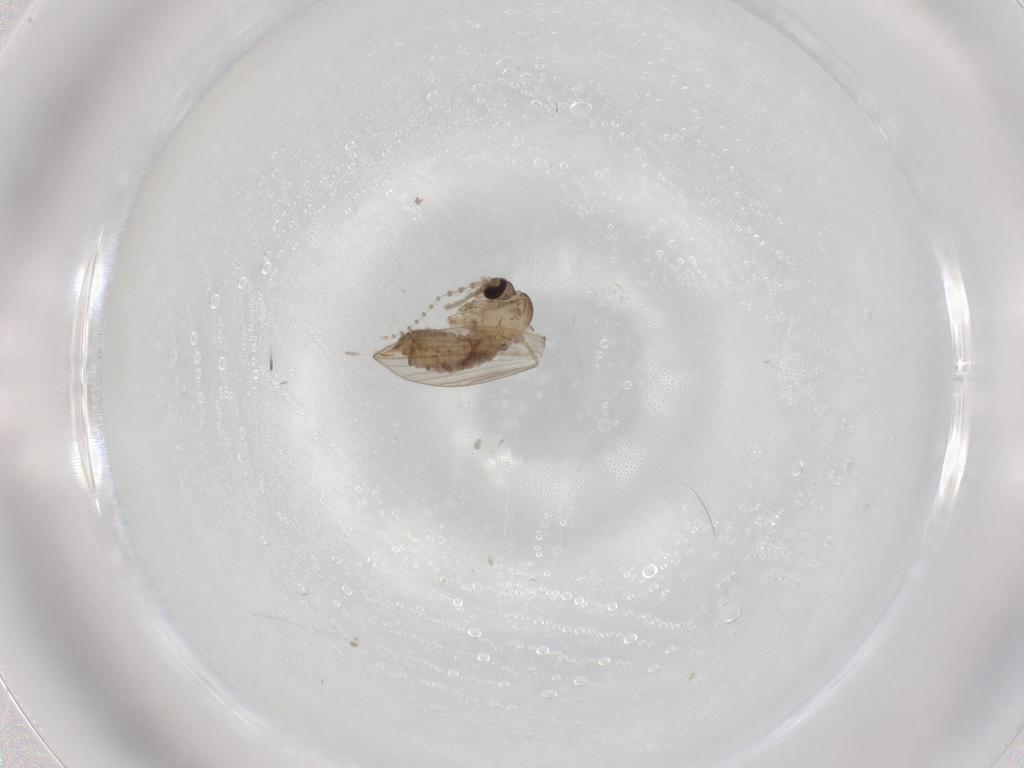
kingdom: Animalia
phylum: Arthropoda
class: Insecta
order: Diptera
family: Psychodidae
